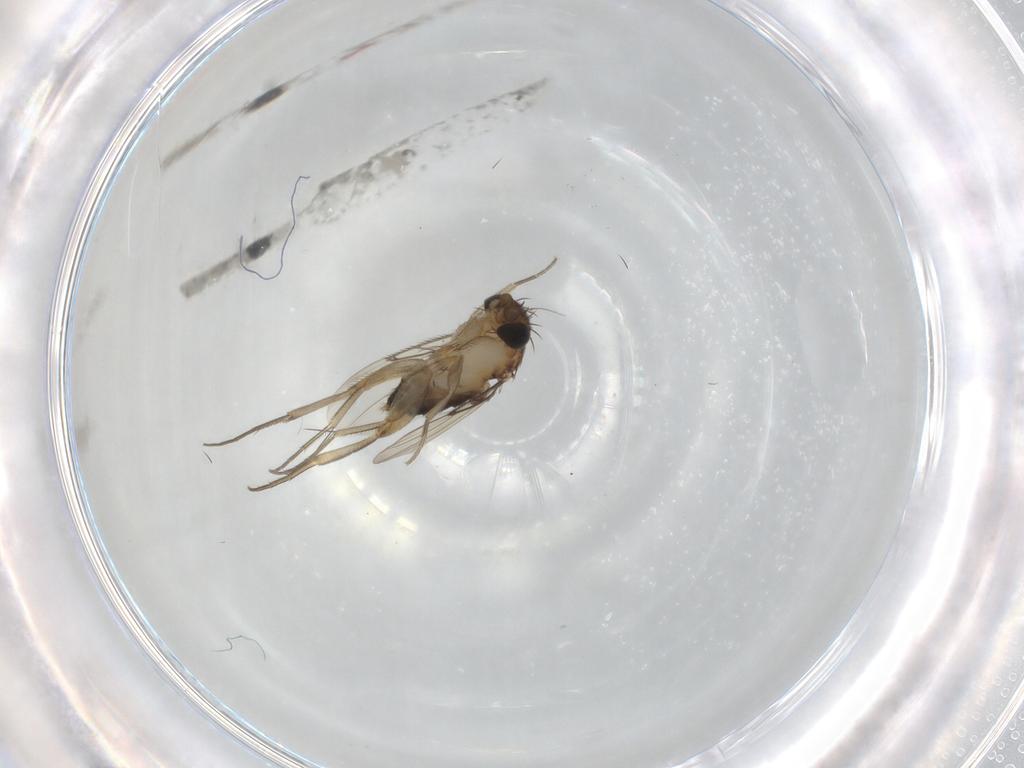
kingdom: Animalia
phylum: Arthropoda
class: Insecta
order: Diptera
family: Phoridae
